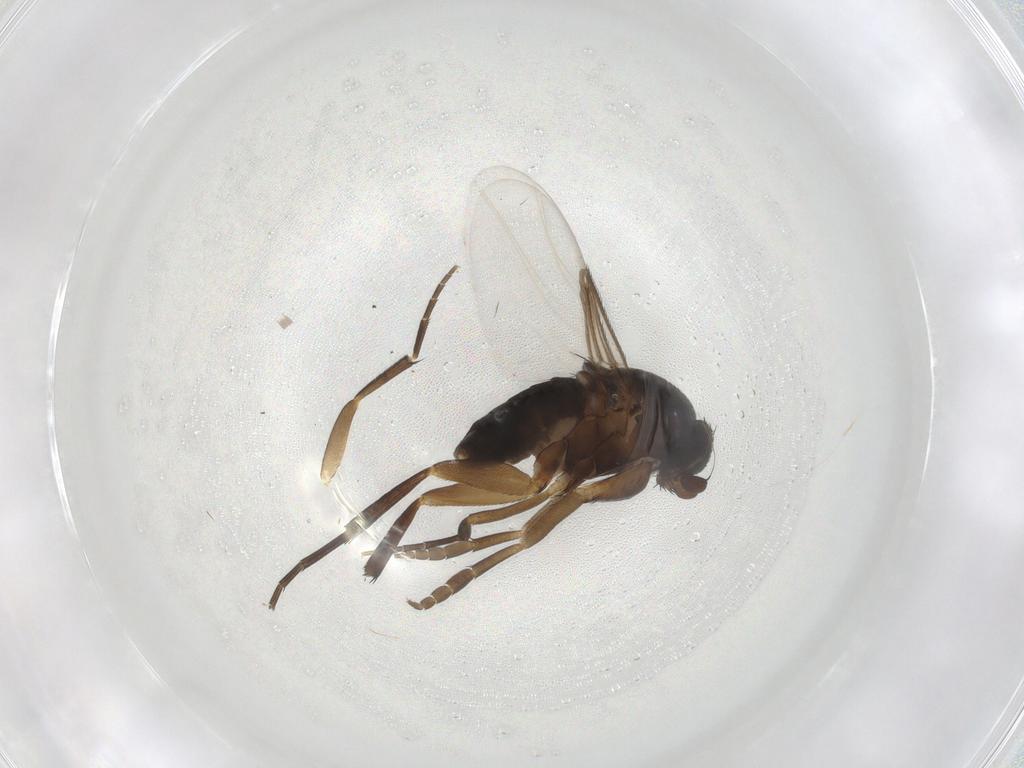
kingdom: Animalia
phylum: Arthropoda
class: Insecta
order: Diptera
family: Phoridae
